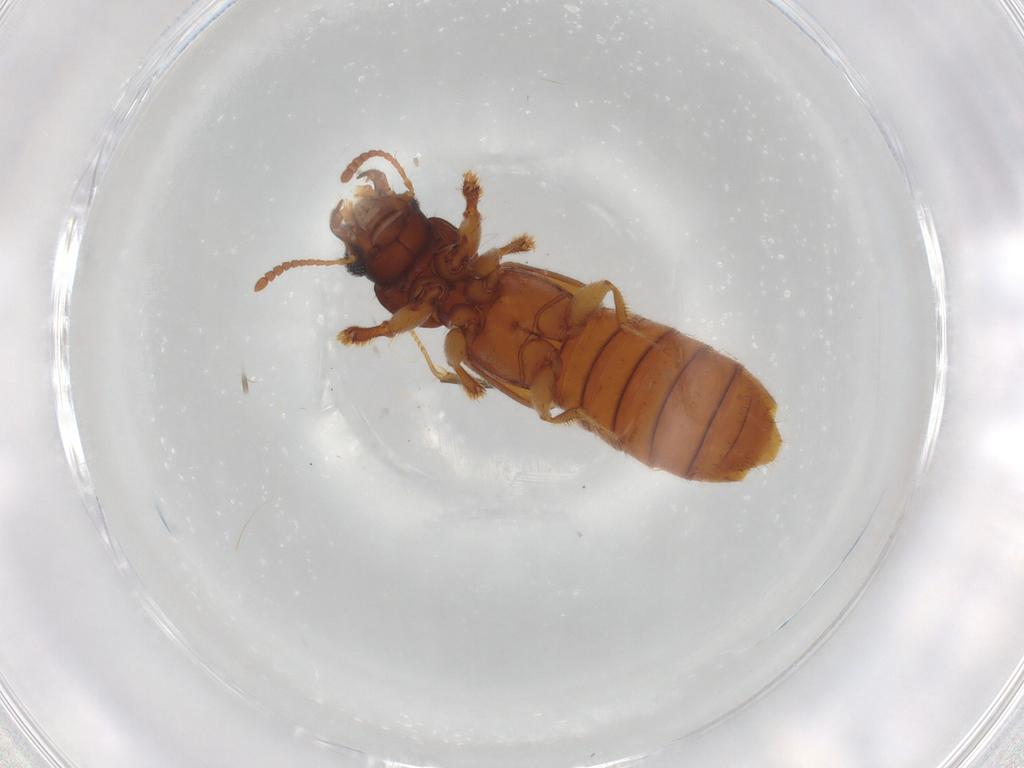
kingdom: Animalia
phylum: Arthropoda
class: Insecta
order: Coleoptera
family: Staphylinidae
